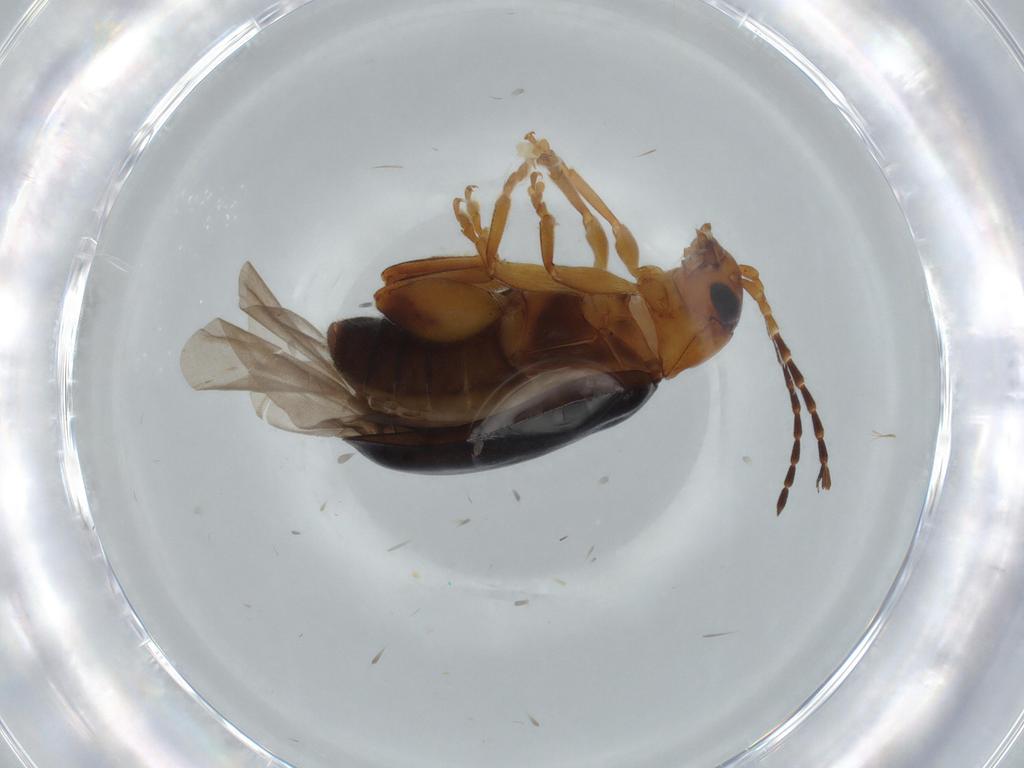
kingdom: Animalia
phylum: Arthropoda
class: Insecta
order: Coleoptera
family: Chrysomelidae
